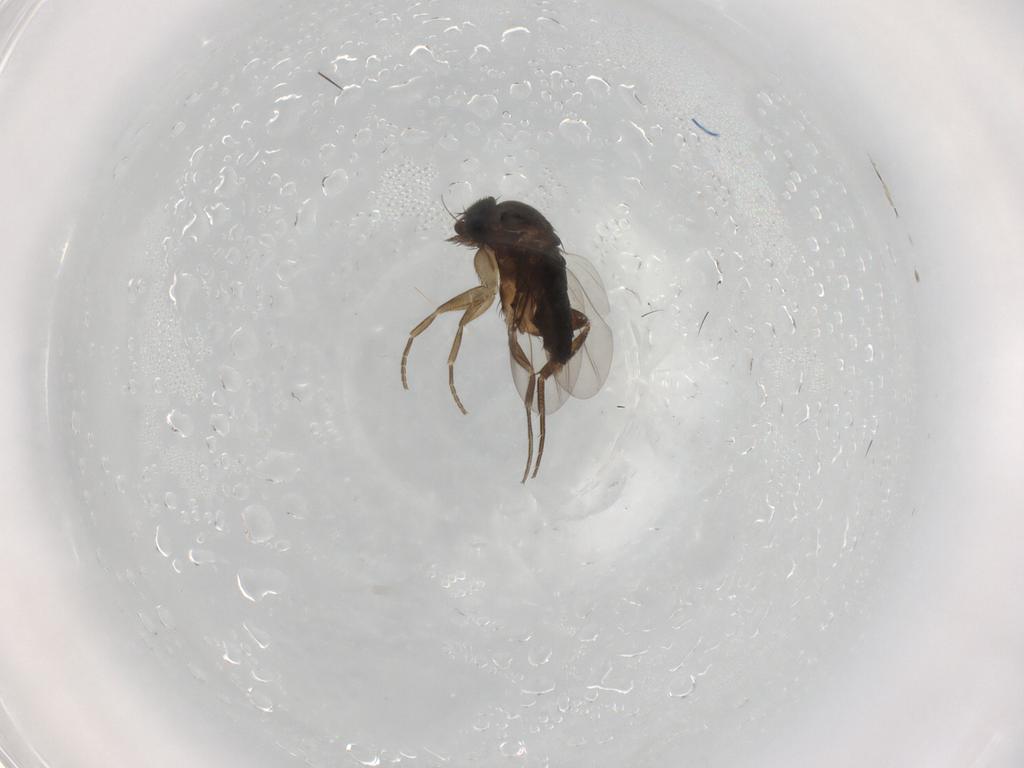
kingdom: Animalia
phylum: Arthropoda
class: Insecta
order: Diptera
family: Phoridae
